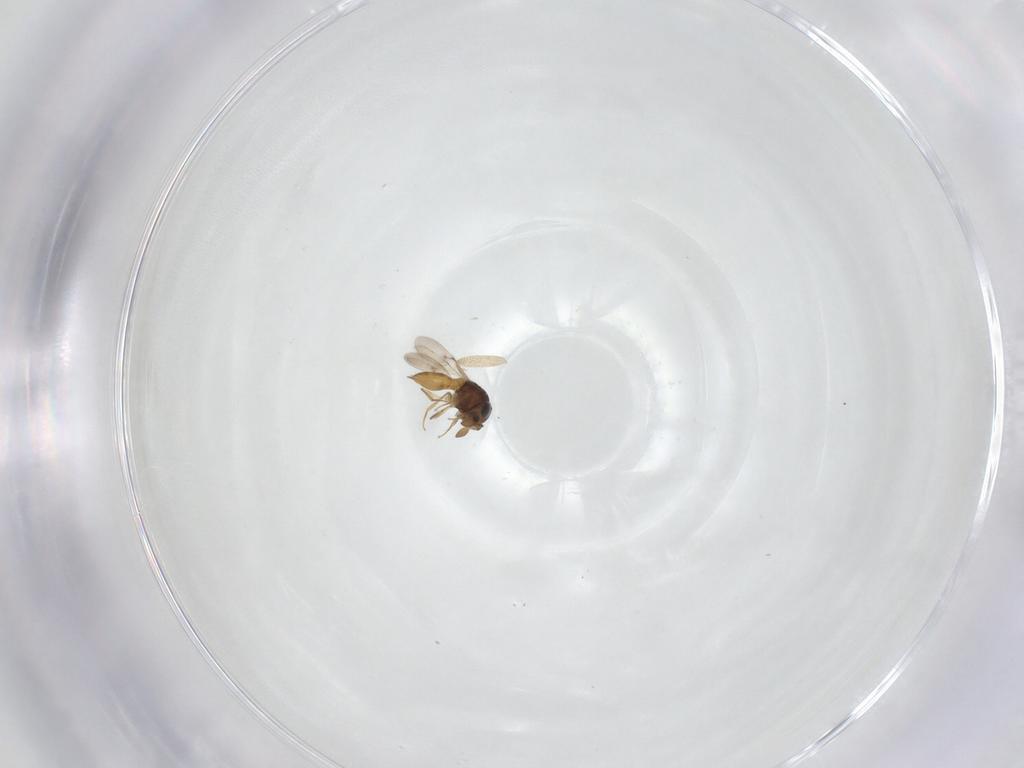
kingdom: Animalia
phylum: Arthropoda
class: Insecta
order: Hymenoptera
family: Scelionidae
